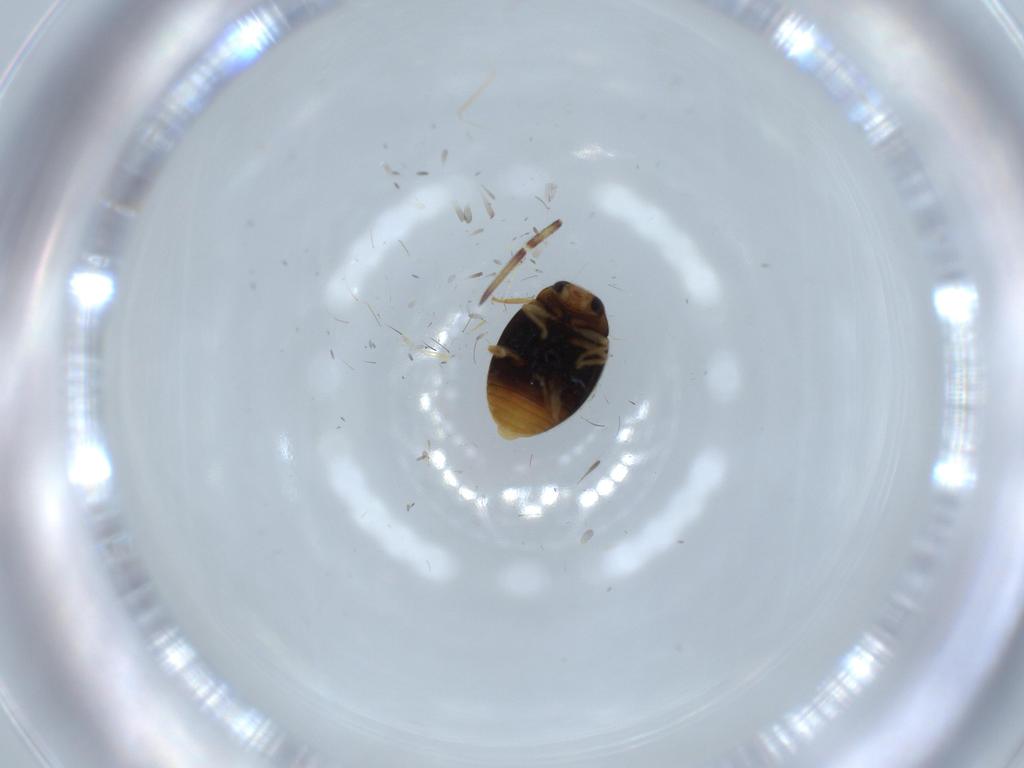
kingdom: Animalia
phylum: Arthropoda
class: Insecta
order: Coleoptera
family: Coccinellidae
